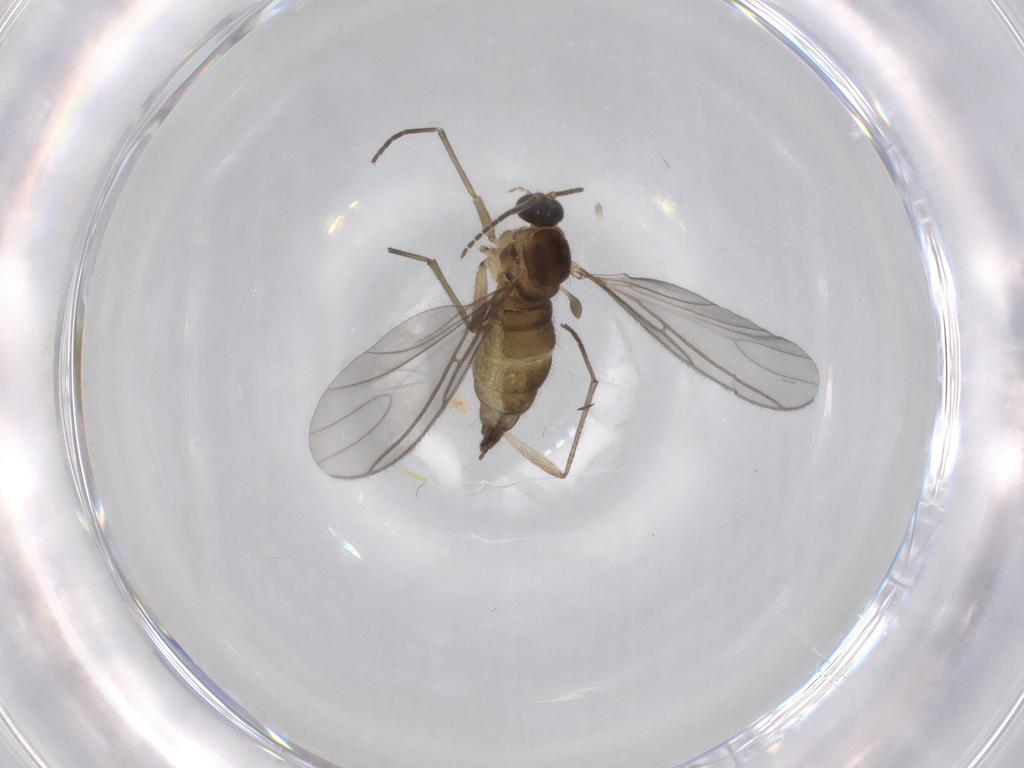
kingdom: Animalia
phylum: Arthropoda
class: Insecta
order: Diptera
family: Sciaridae
